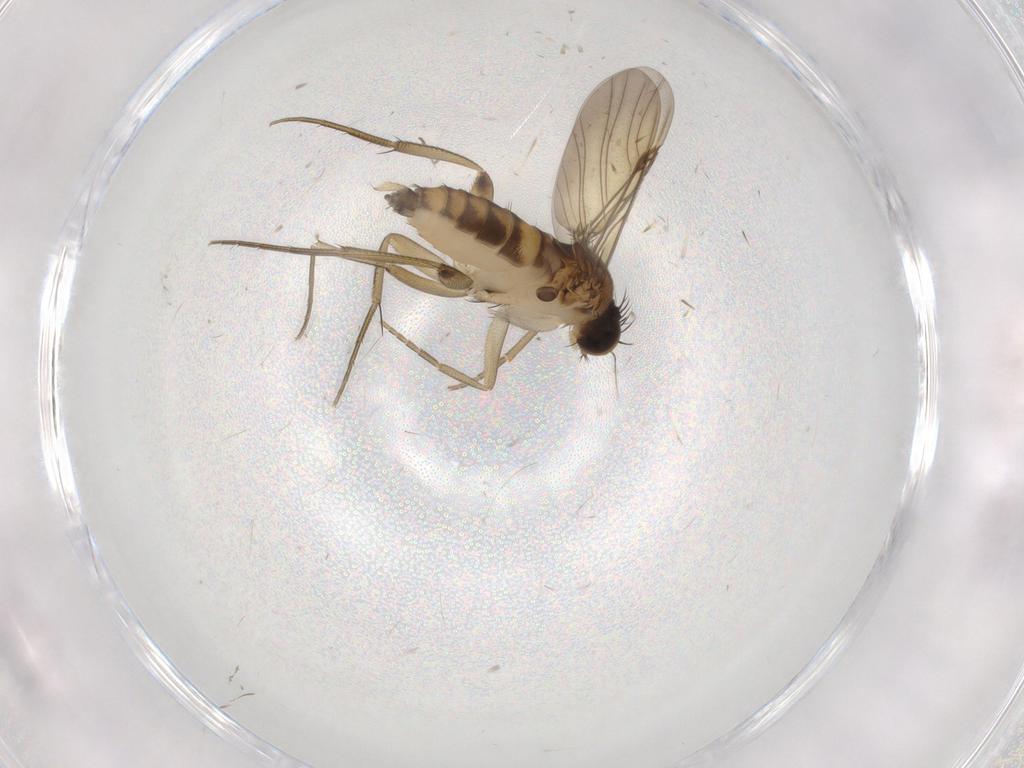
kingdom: Animalia
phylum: Arthropoda
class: Insecta
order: Diptera
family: Phoridae
